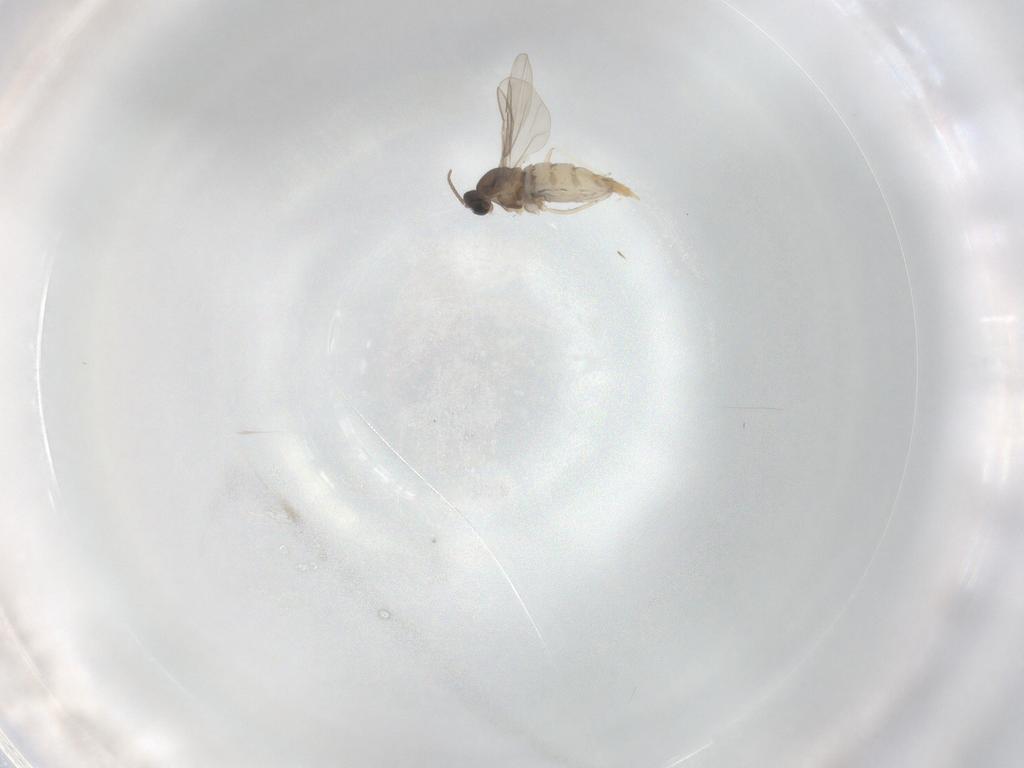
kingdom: Animalia
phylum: Arthropoda
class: Insecta
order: Diptera
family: Cecidomyiidae
